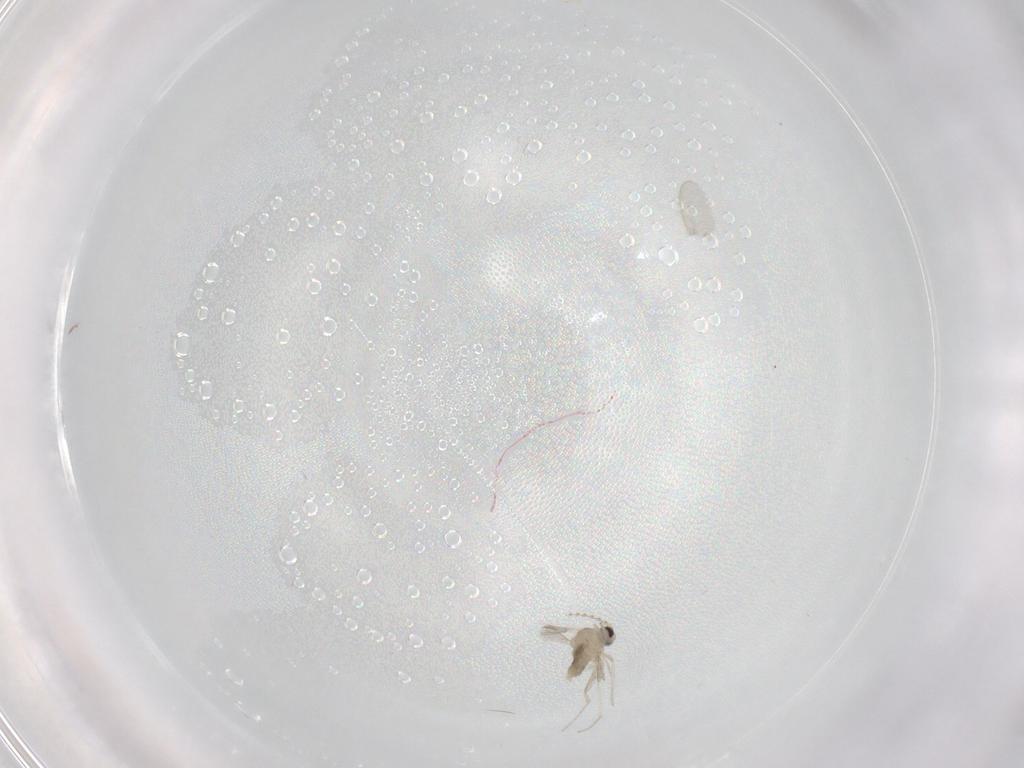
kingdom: Animalia
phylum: Arthropoda
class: Insecta
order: Diptera
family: Cecidomyiidae
